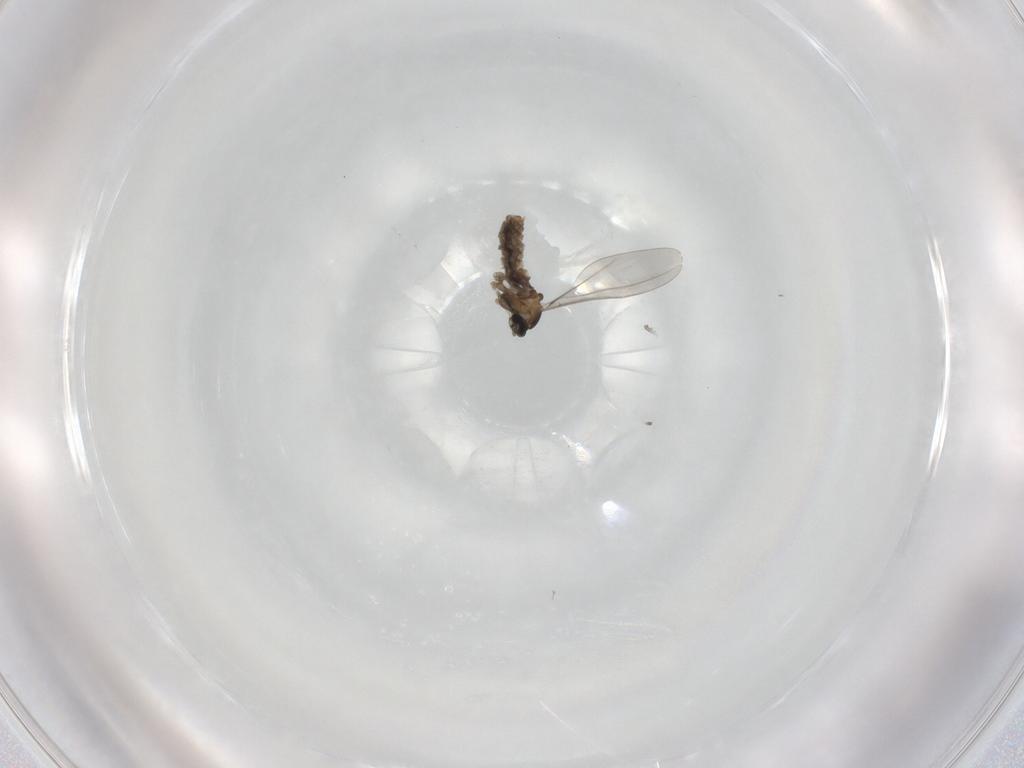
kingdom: Animalia
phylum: Arthropoda
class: Insecta
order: Diptera
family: Cecidomyiidae
